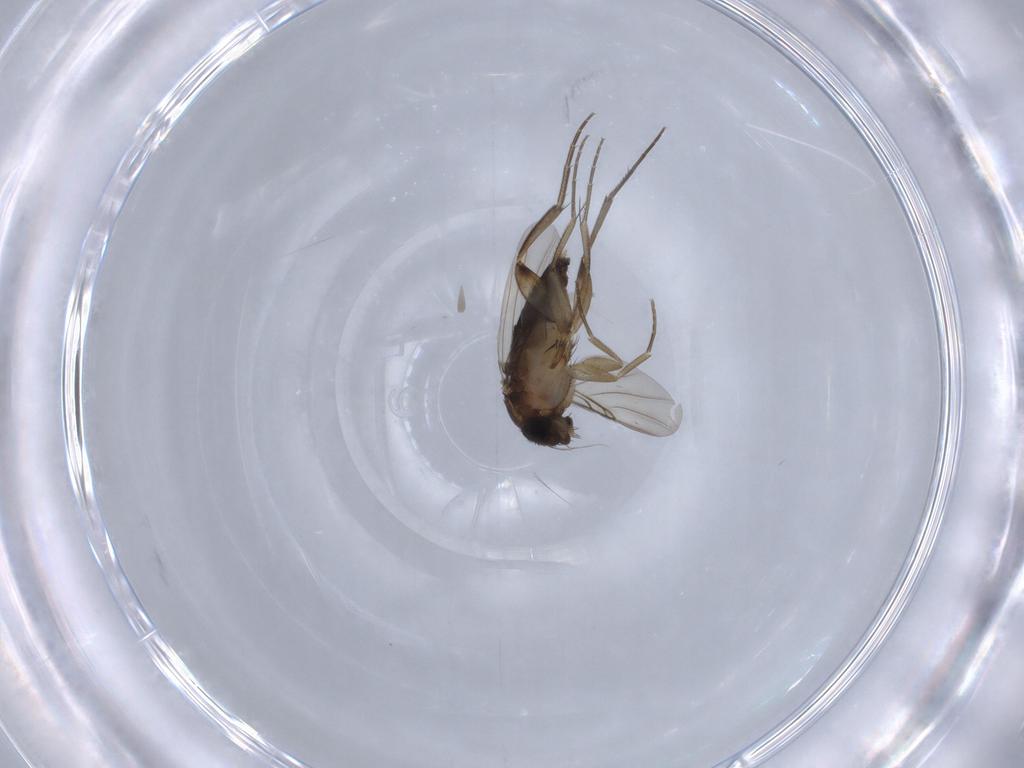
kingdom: Animalia
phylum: Arthropoda
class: Insecta
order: Diptera
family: Phoridae
